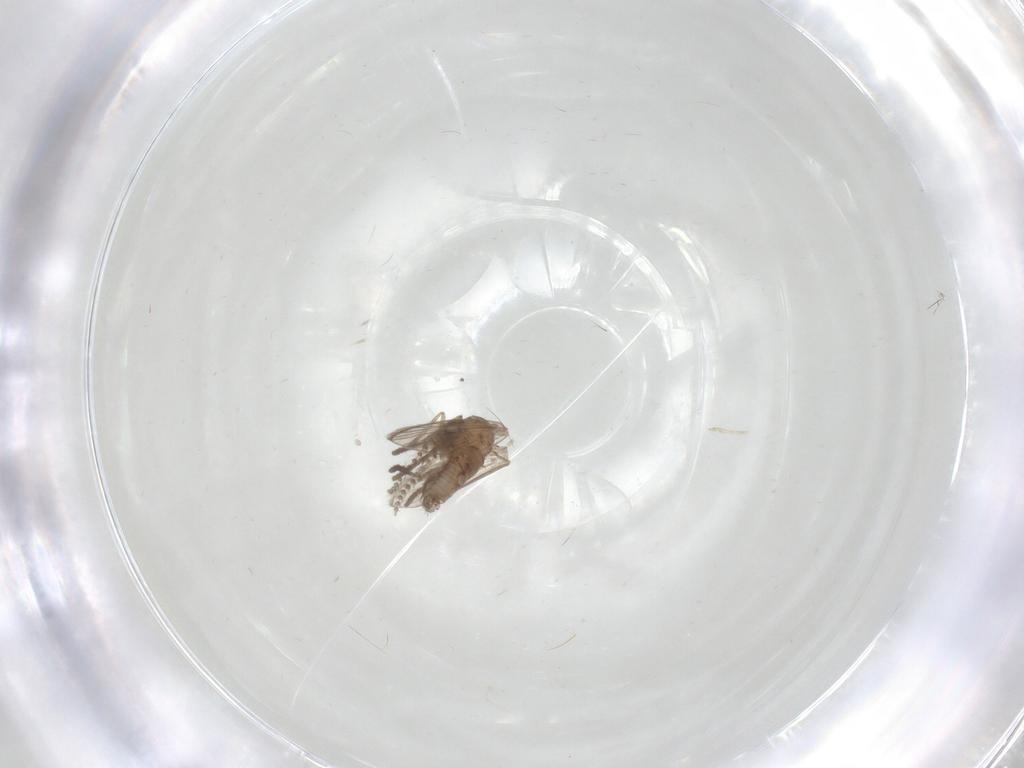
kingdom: Animalia
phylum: Arthropoda
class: Insecta
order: Diptera
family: Psychodidae
